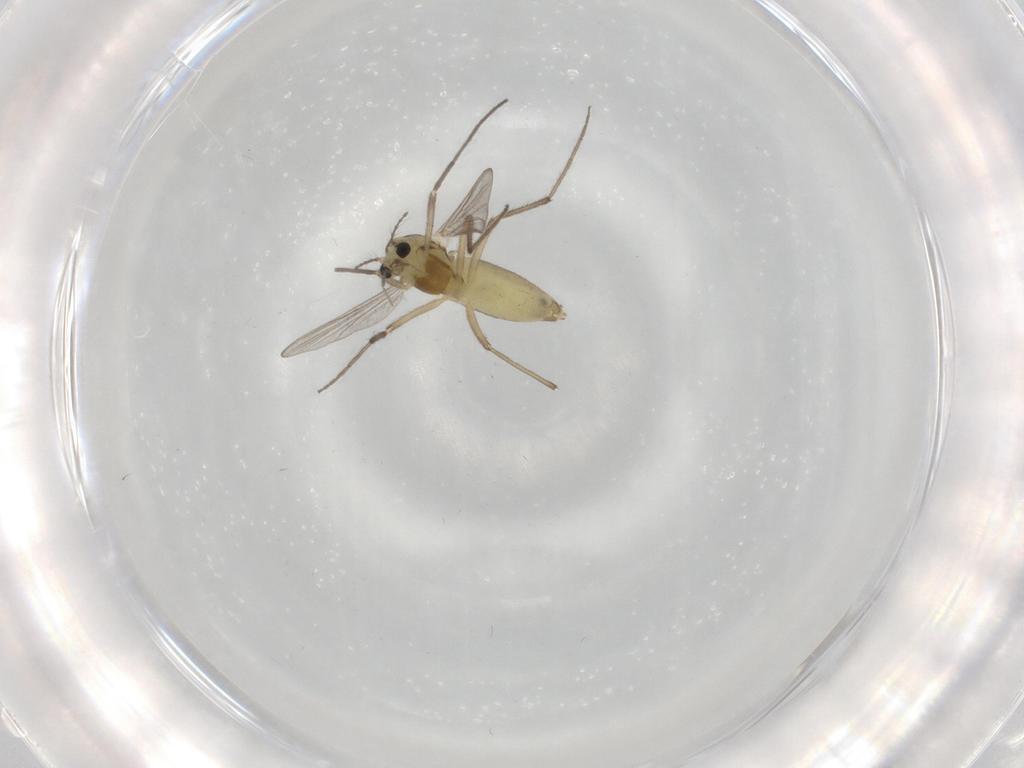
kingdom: Animalia
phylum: Arthropoda
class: Insecta
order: Diptera
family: Chironomidae
